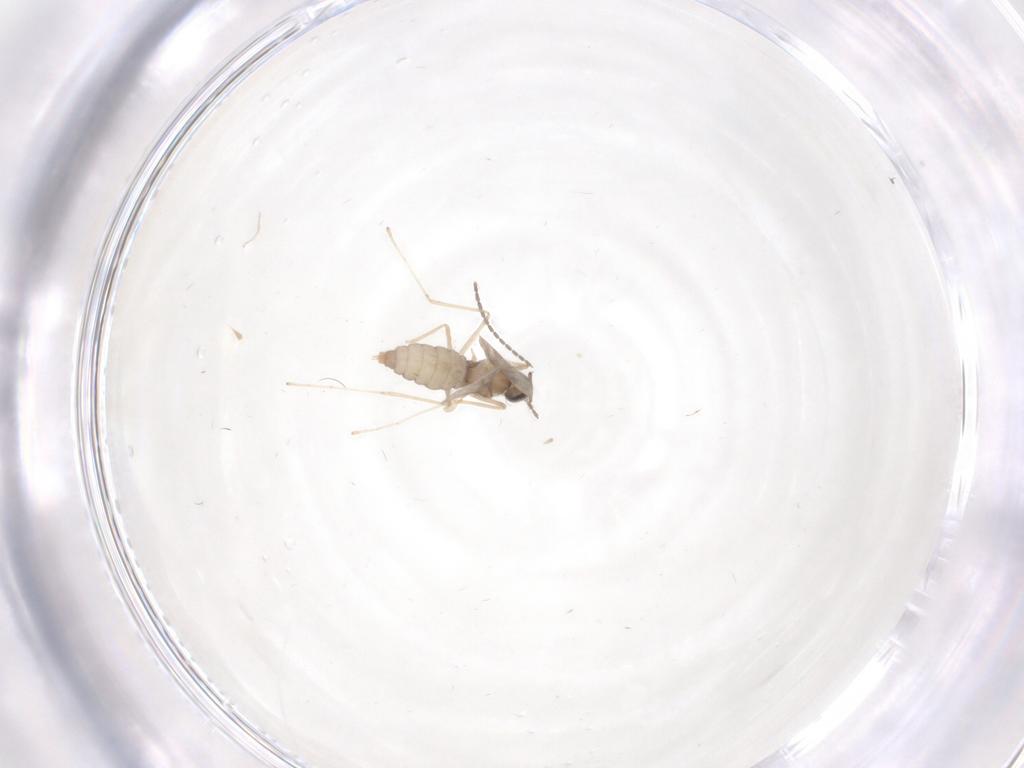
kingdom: Animalia
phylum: Arthropoda
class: Insecta
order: Diptera
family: Cecidomyiidae
